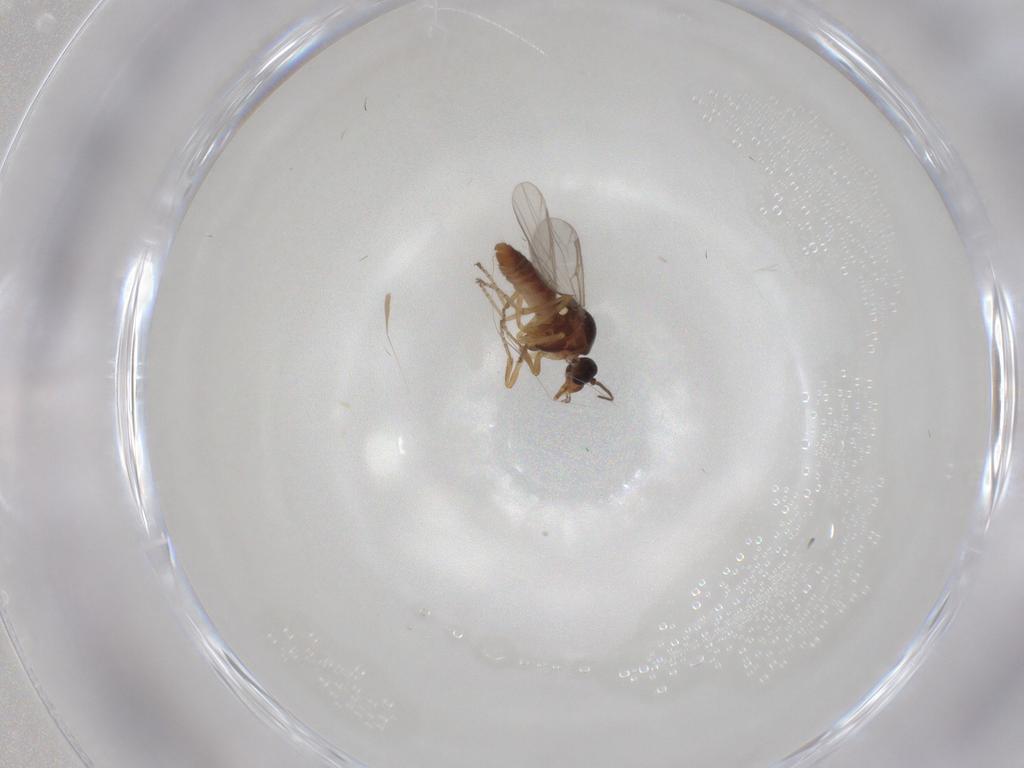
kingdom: Animalia
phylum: Arthropoda
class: Insecta
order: Diptera
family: Ceratopogonidae
